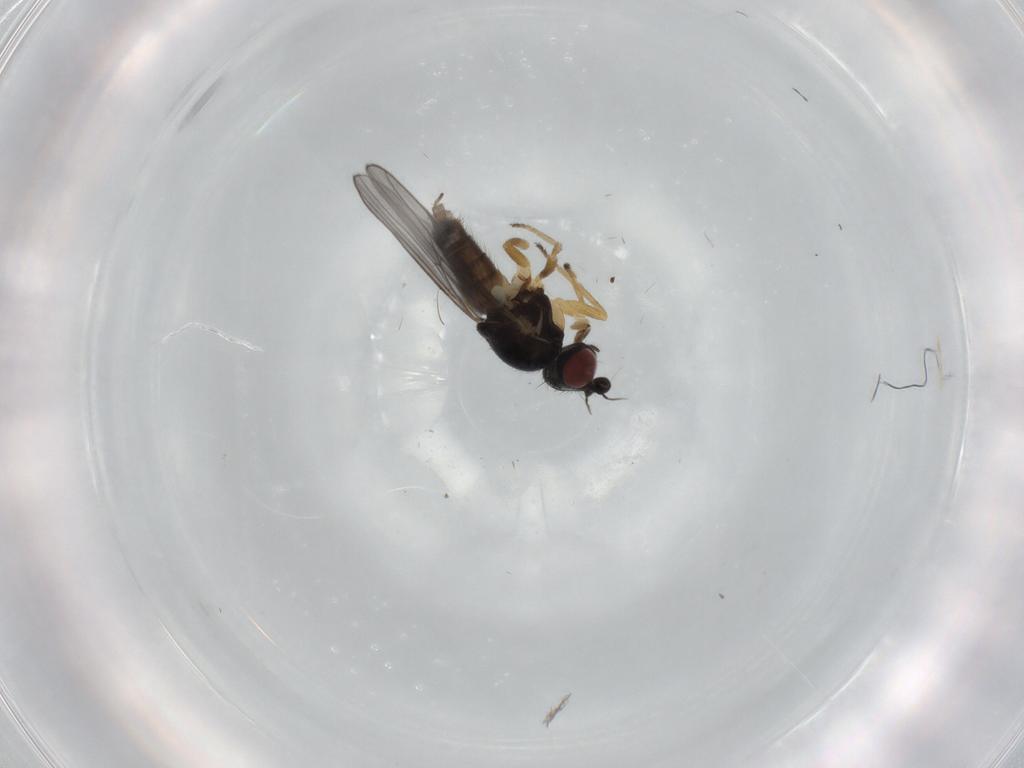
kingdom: Animalia
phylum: Arthropoda
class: Insecta
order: Diptera
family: Chloropidae
